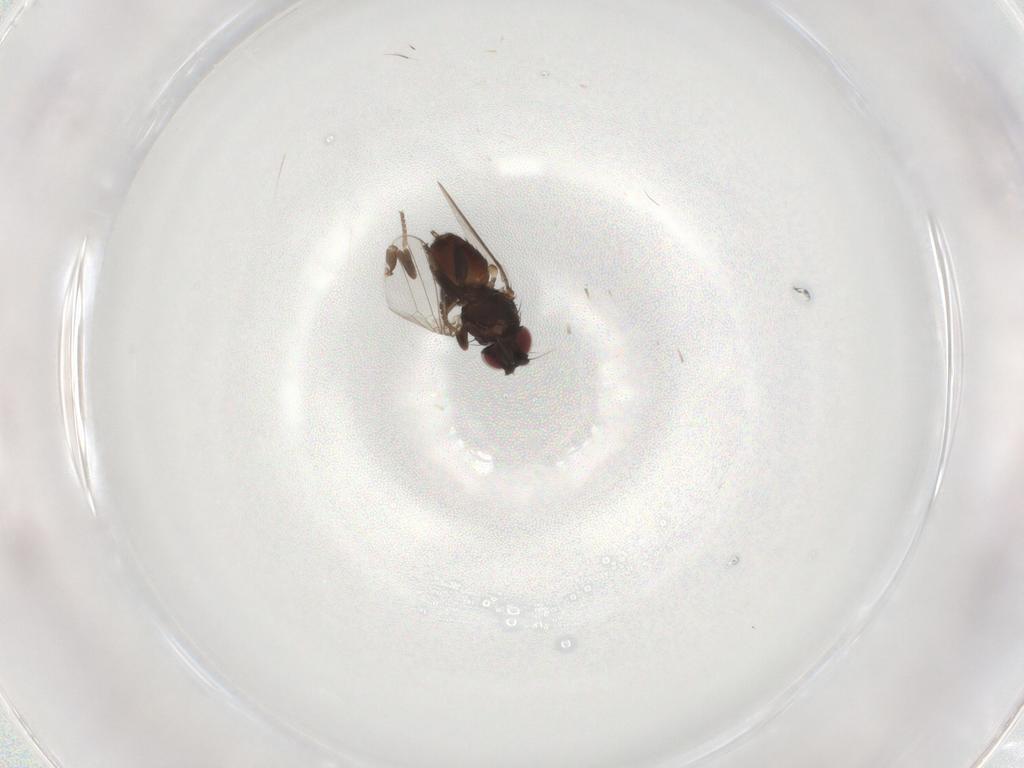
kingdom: Animalia
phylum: Arthropoda
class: Insecta
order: Diptera
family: Milichiidae
